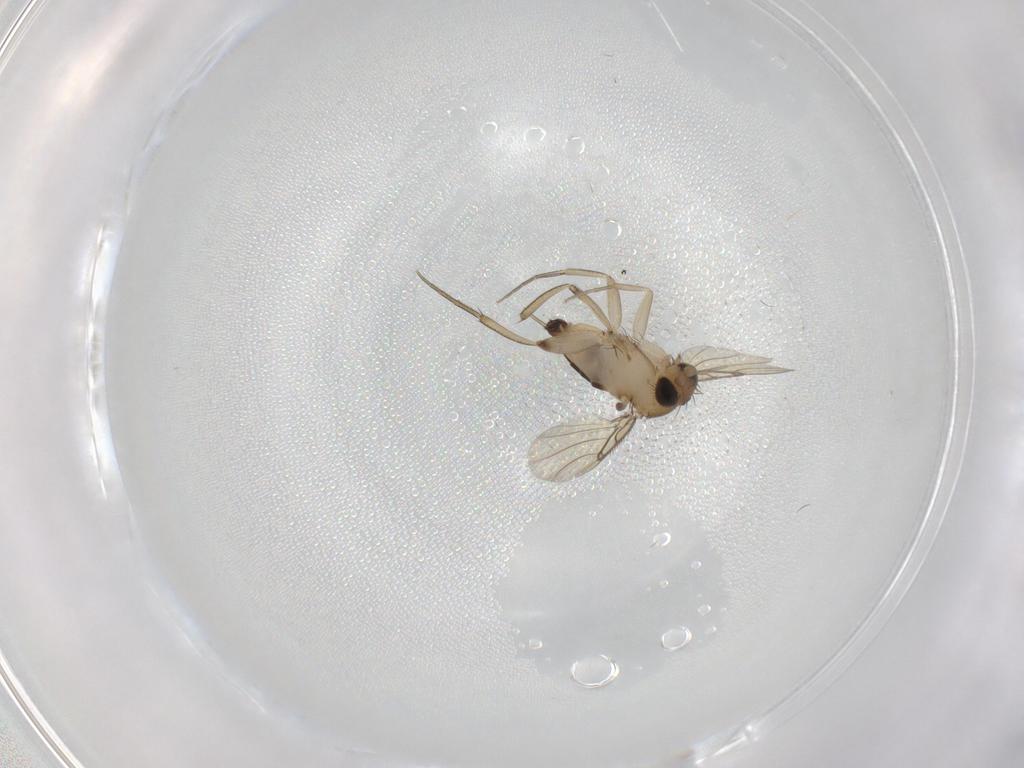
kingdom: Animalia
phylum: Arthropoda
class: Insecta
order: Diptera
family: Phoridae
